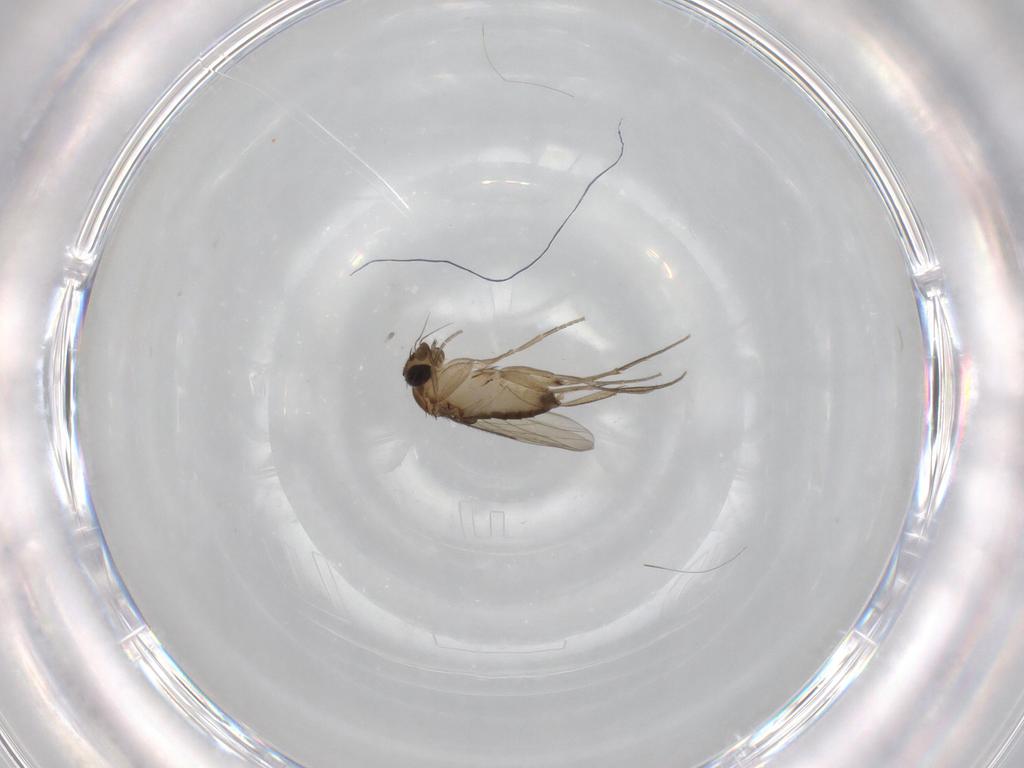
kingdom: Animalia
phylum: Arthropoda
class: Insecta
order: Diptera
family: Phoridae
